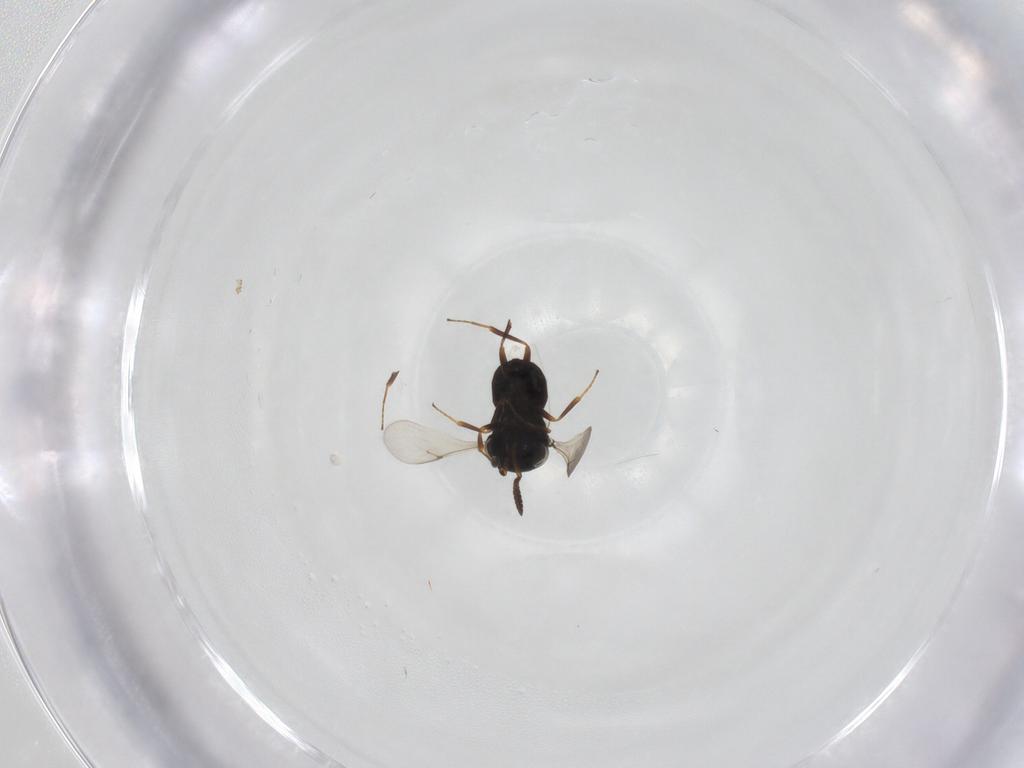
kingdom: Animalia
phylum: Arthropoda
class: Insecta
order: Hymenoptera
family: Scelionidae
